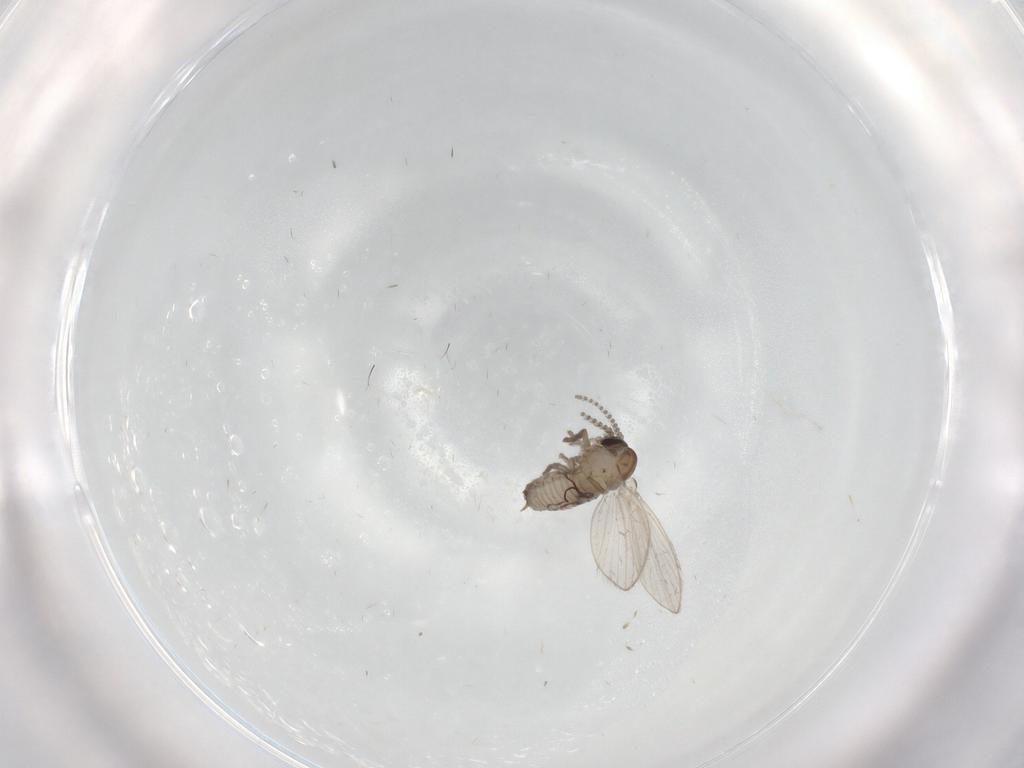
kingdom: Animalia
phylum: Arthropoda
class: Insecta
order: Diptera
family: Psychodidae
